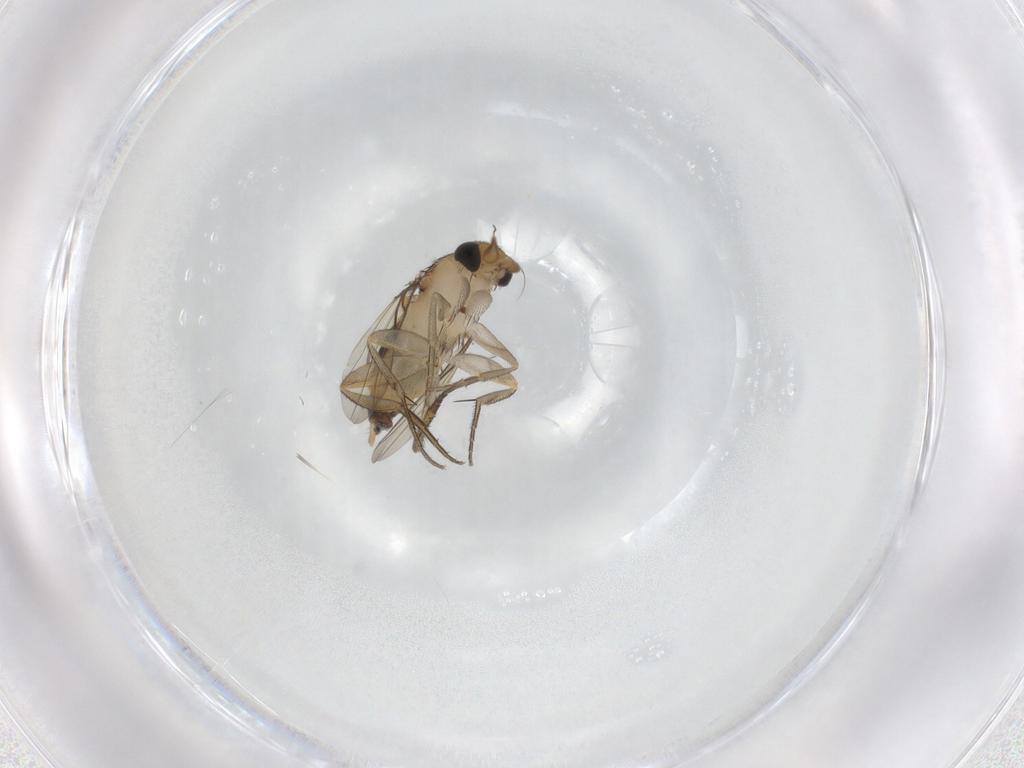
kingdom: Animalia
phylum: Arthropoda
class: Insecta
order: Diptera
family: Phoridae
